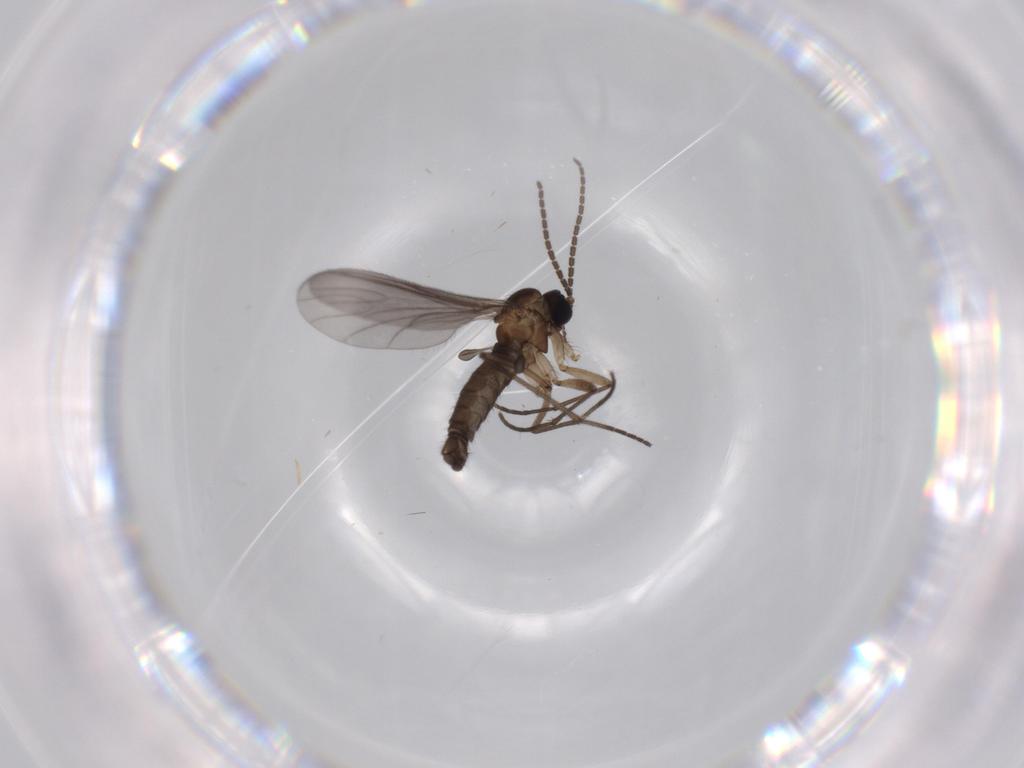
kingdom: Animalia
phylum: Arthropoda
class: Insecta
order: Diptera
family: Sciaridae
